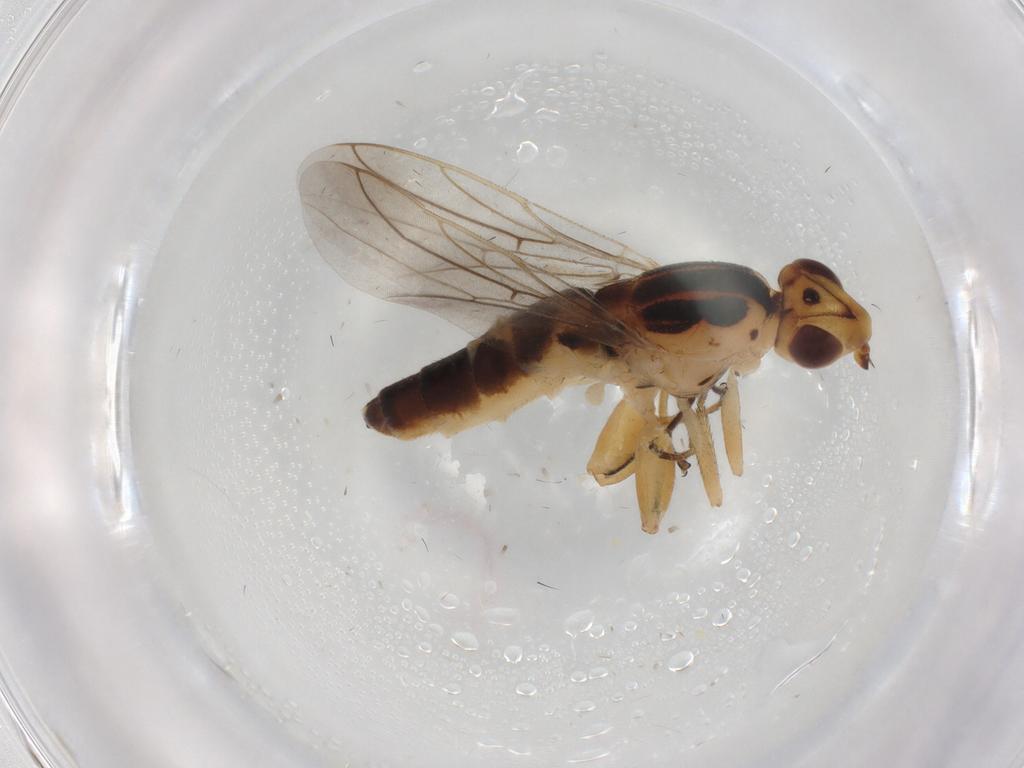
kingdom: Animalia
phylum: Arthropoda
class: Insecta
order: Diptera
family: Chloropidae
